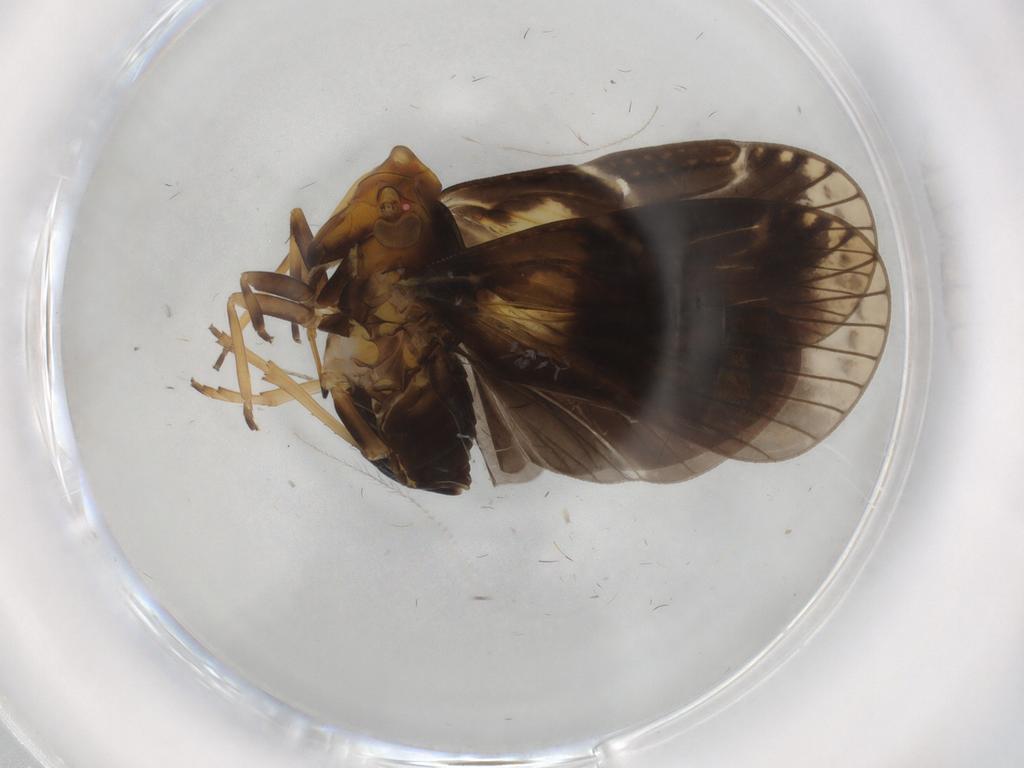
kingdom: Animalia
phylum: Arthropoda
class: Insecta
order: Hemiptera
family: Cixiidae
